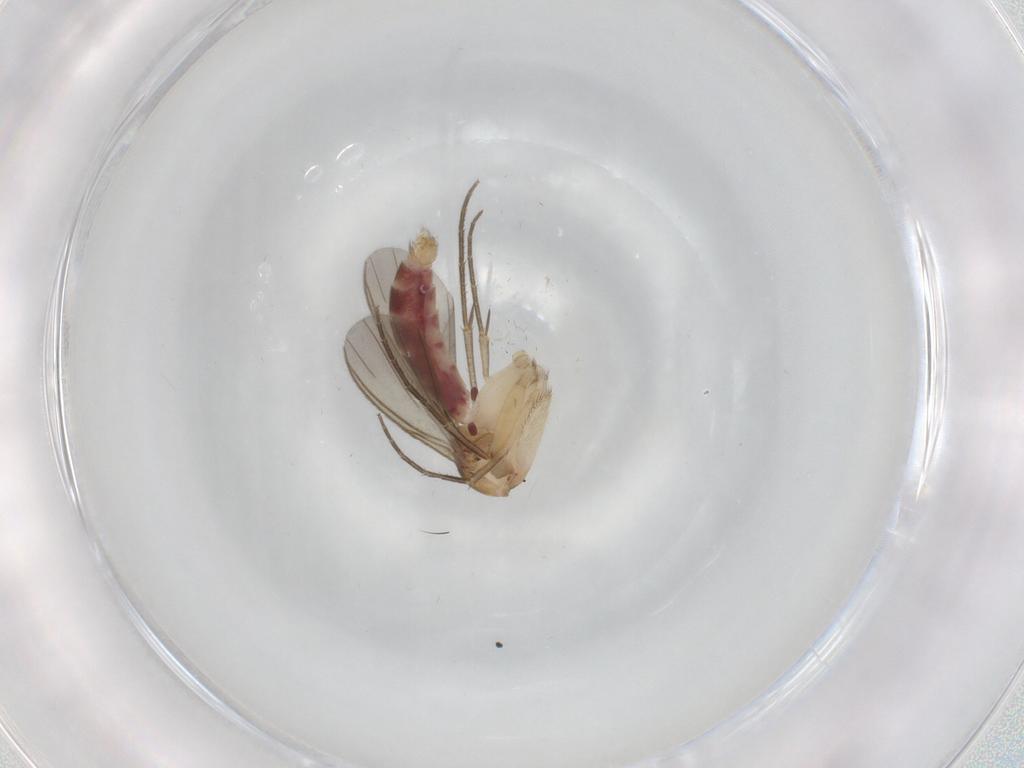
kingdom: Animalia
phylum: Arthropoda
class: Insecta
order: Diptera
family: Mycetophilidae
